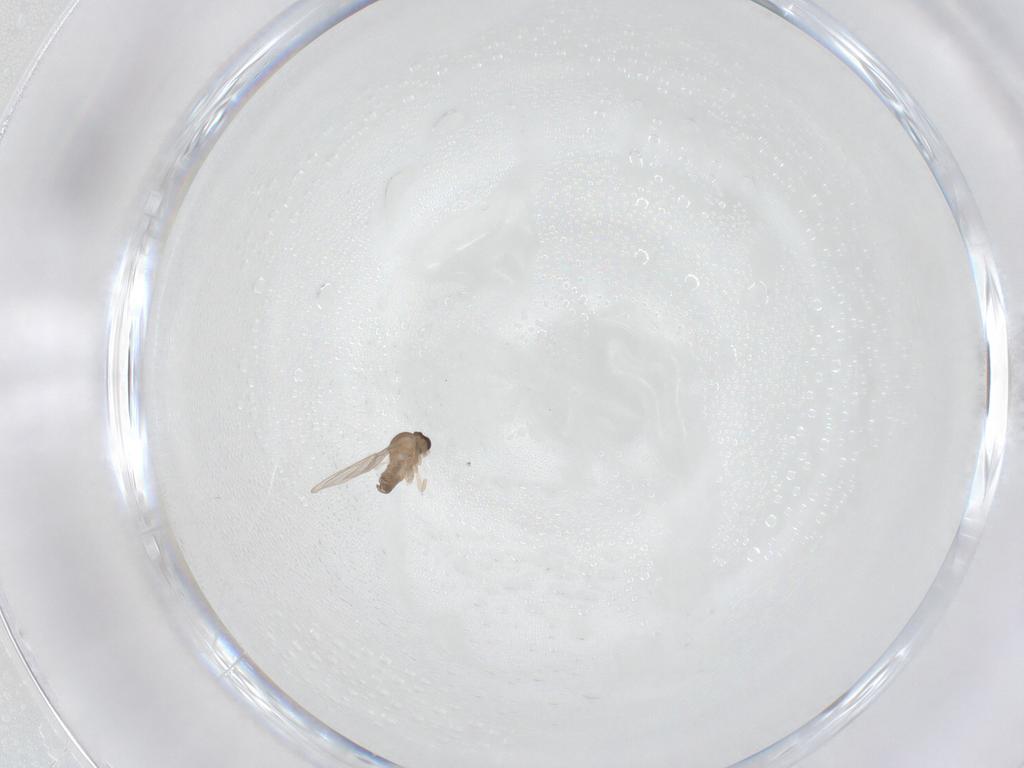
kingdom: Animalia
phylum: Arthropoda
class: Insecta
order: Diptera
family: Cecidomyiidae
